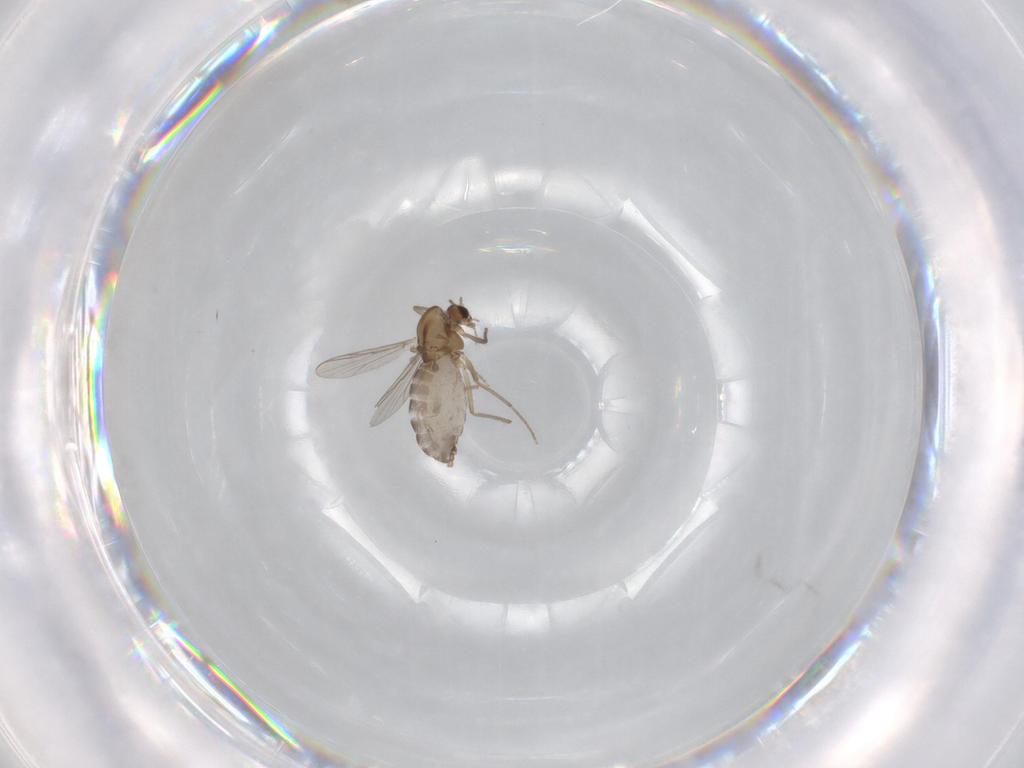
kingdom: Animalia
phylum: Arthropoda
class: Insecta
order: Diptera
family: Chironomidae
